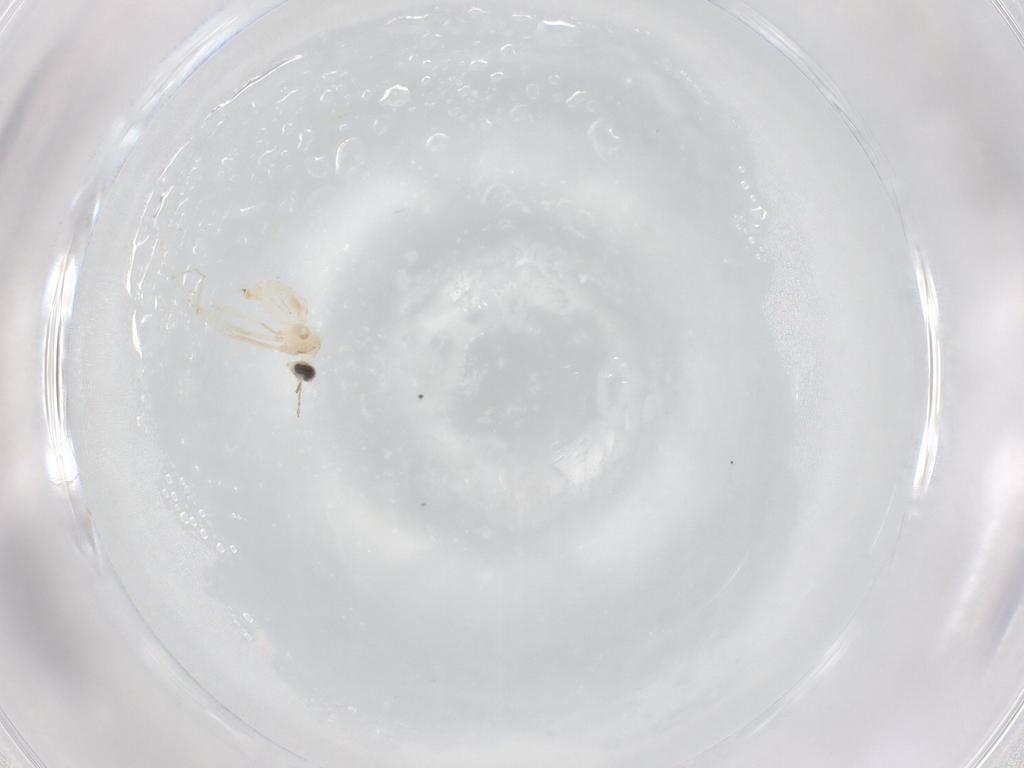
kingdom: Animalia
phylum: Arthropoda
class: Insecta
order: Diptera
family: Cecidomyiidae
